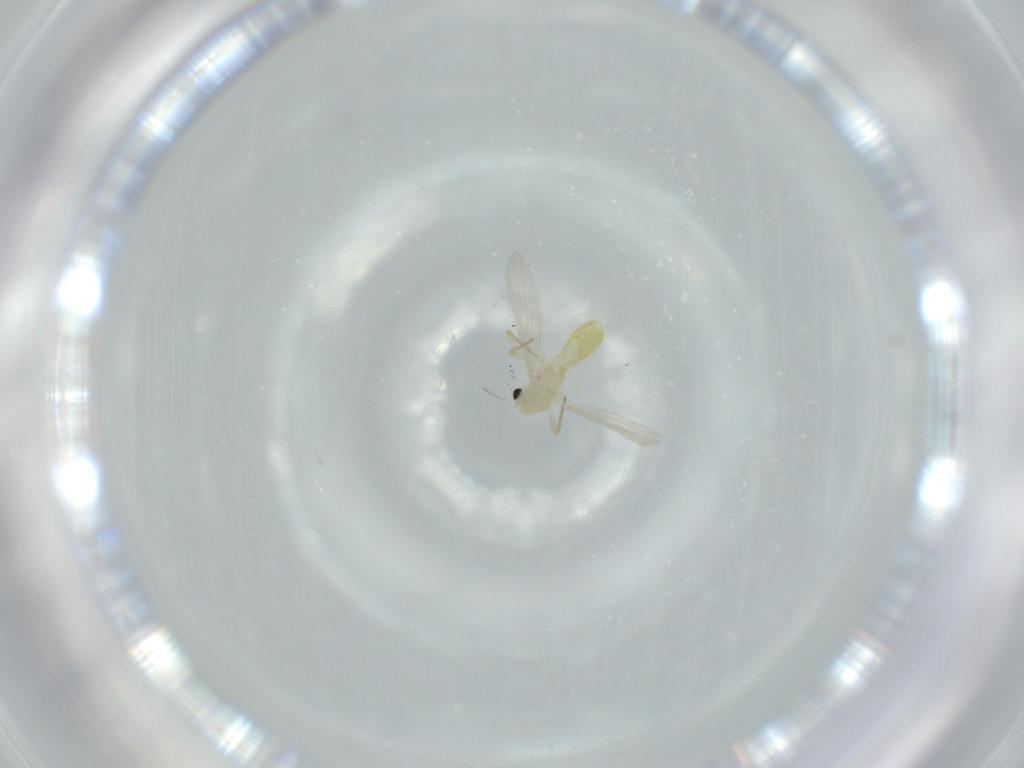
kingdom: Animalia
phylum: Arthropoda
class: Insecta
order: Diptera
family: Chironomidae
